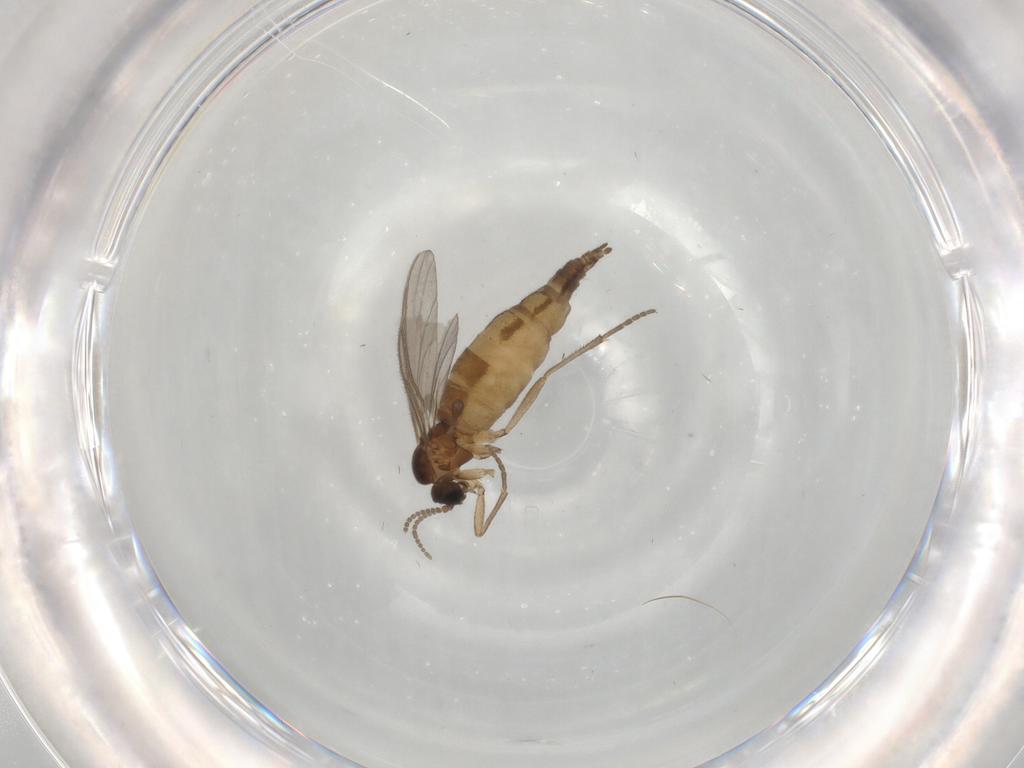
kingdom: Animalia
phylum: Arthropoda
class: Insecta
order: Diptera
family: Sciaridae
